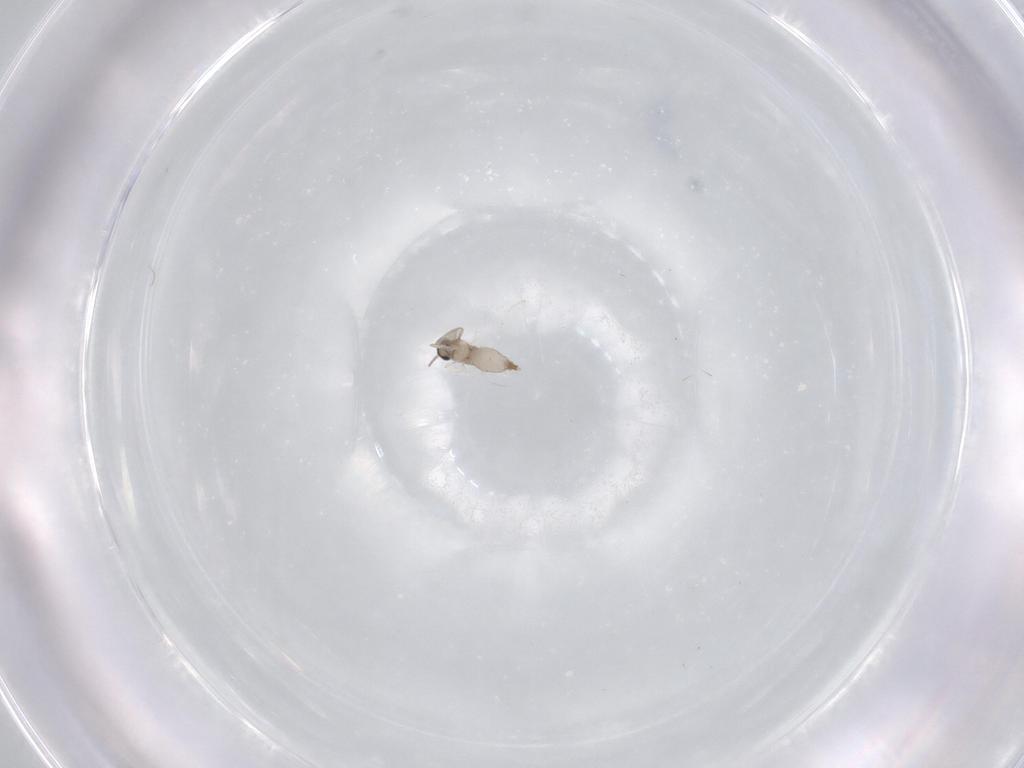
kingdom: Animalia
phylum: Arthropoda
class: Insecta
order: Diptera
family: Cecidomyiidae
